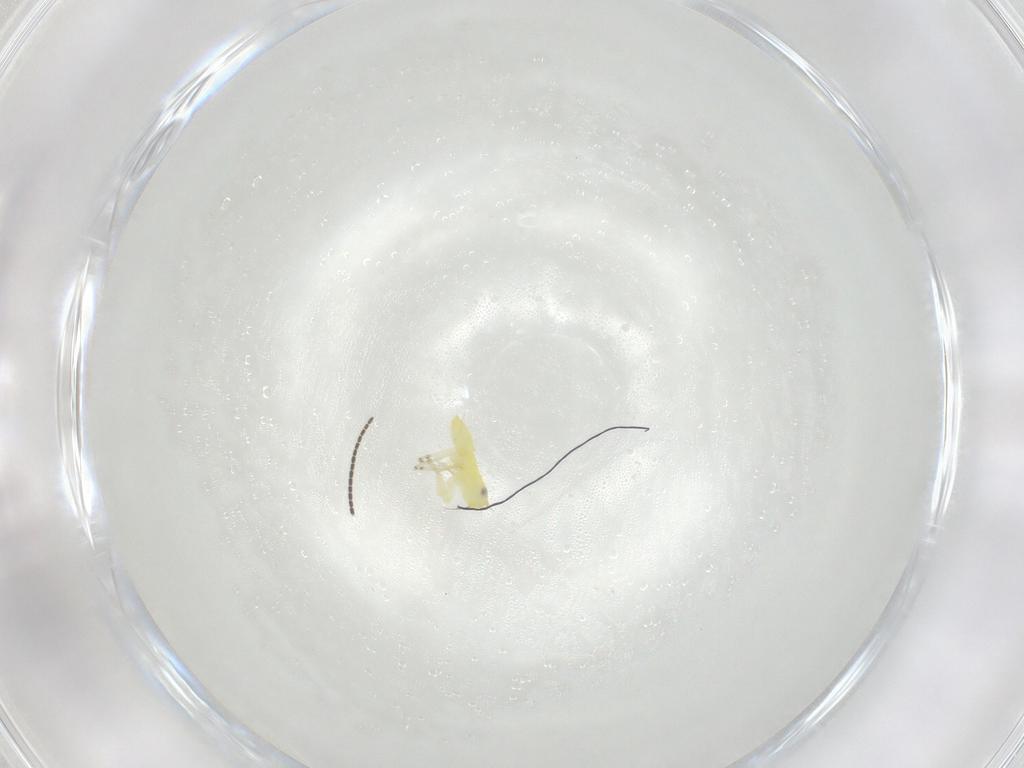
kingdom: Animalia
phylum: Arthropoda
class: Insecta
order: Hemiptera
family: Cicadellidae
